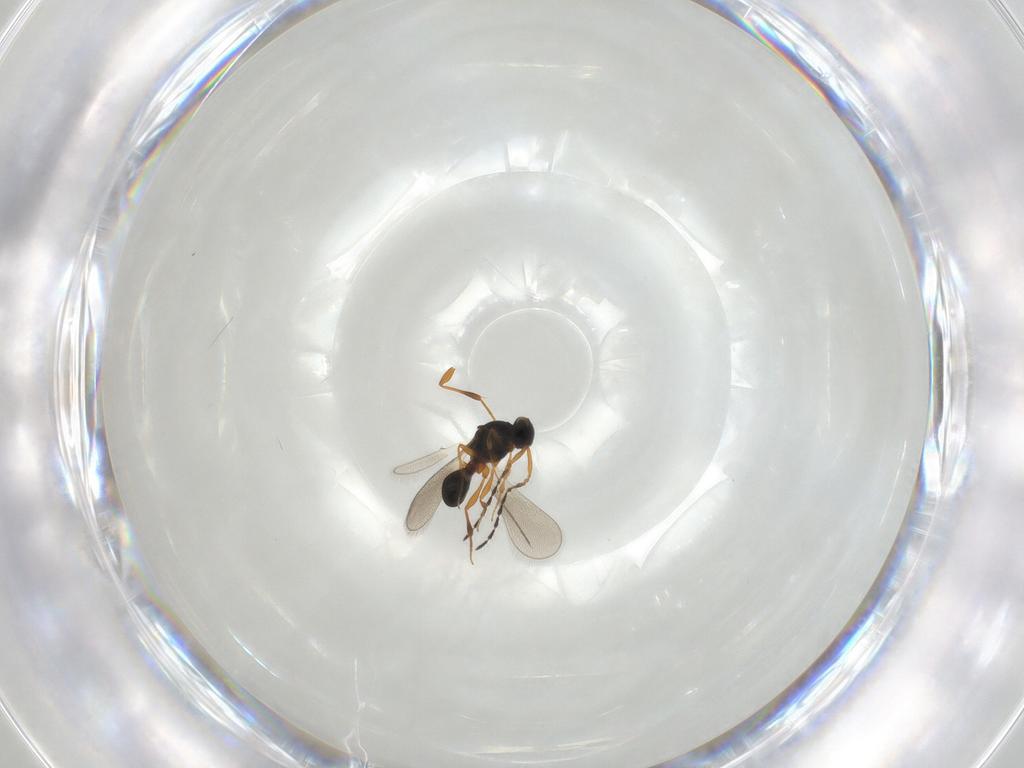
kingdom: Animalia
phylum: Arthropoda
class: Insecta
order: Hymenoptera
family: Platygastridae
